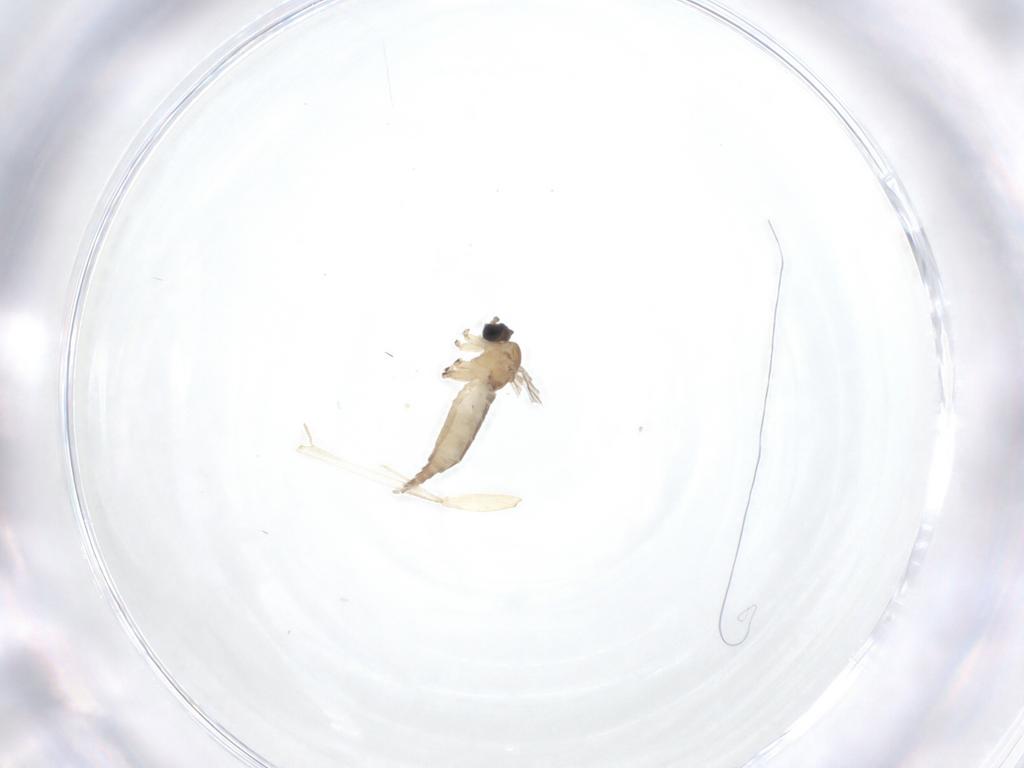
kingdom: Animalia
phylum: Arthropoda
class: Insecta
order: Diptera
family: Sciaridae
